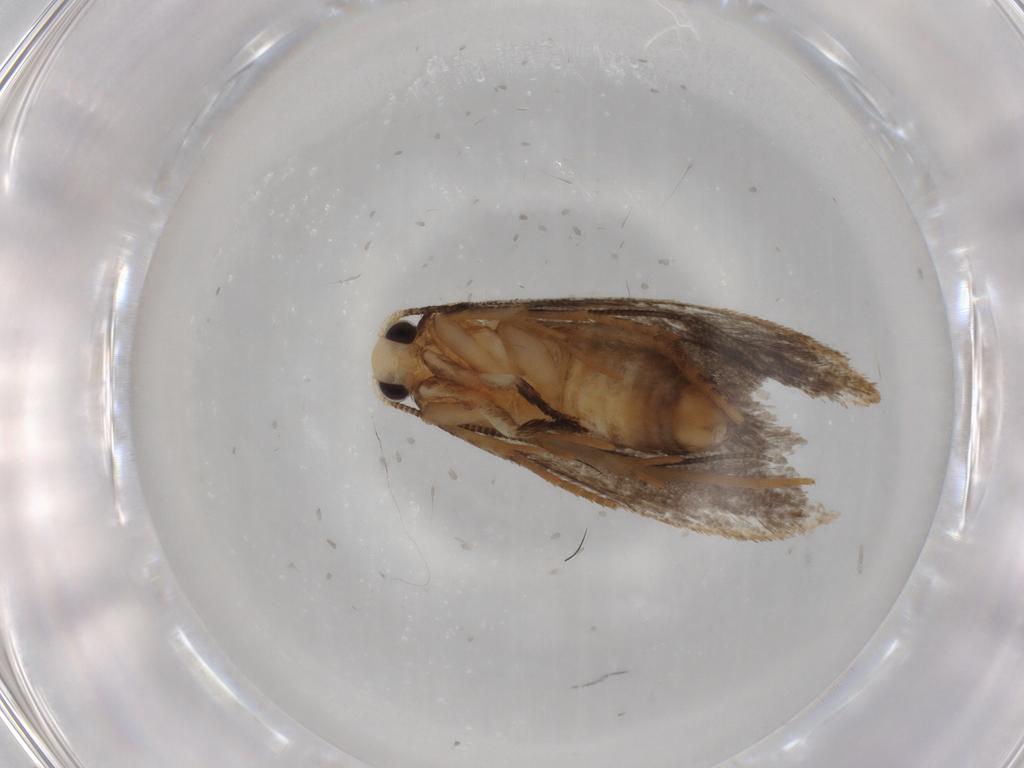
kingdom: Animalia
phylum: Arthropoda
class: Insecta
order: Lepidoptera
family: Tineidae
